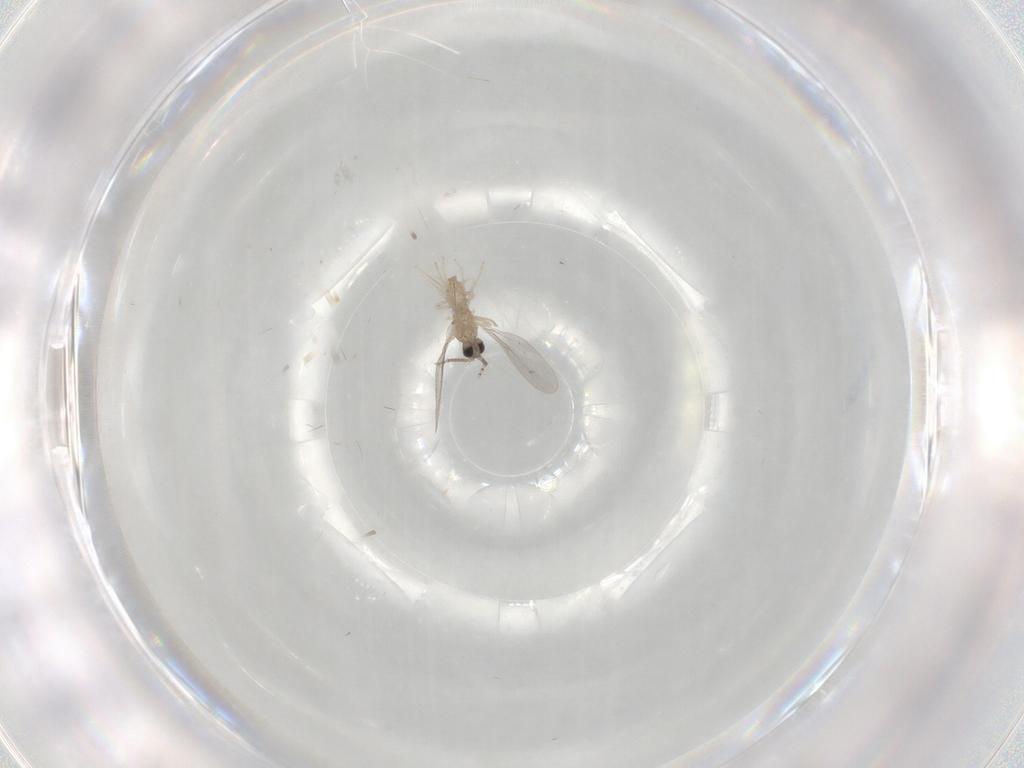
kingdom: Animalia
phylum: Arthropoda
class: Insecta
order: Diptera
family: Cecidomyiidae
